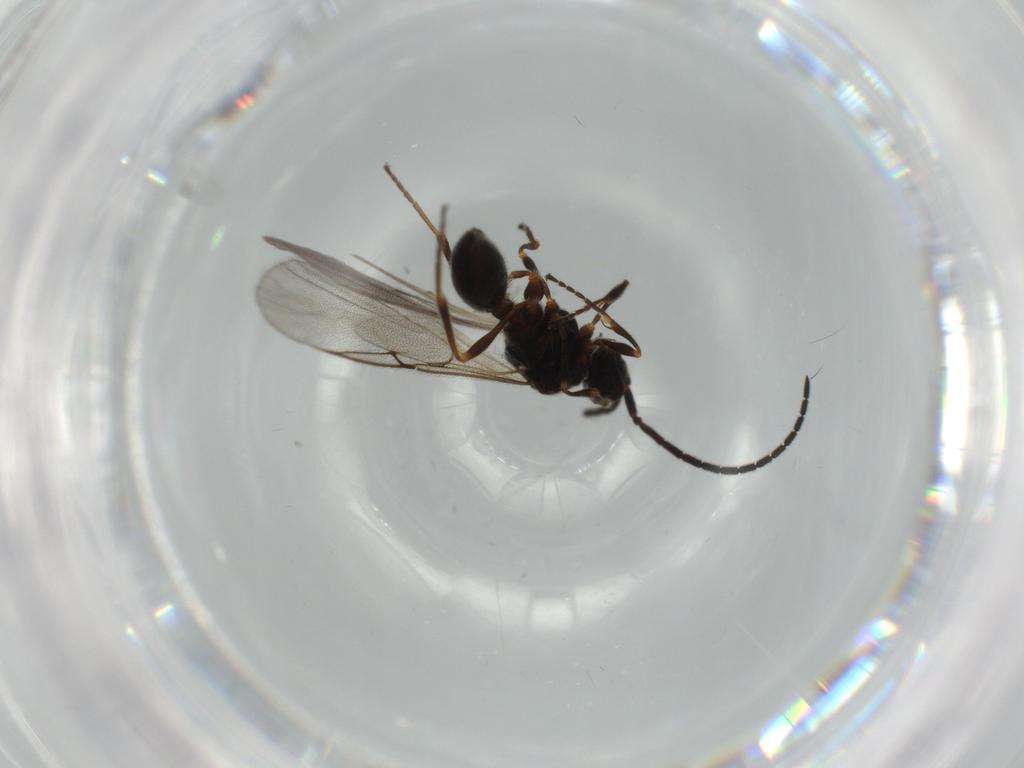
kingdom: Animalia
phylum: Arthropoda
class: Insecta
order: Hymenoptera
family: Diapriidae
